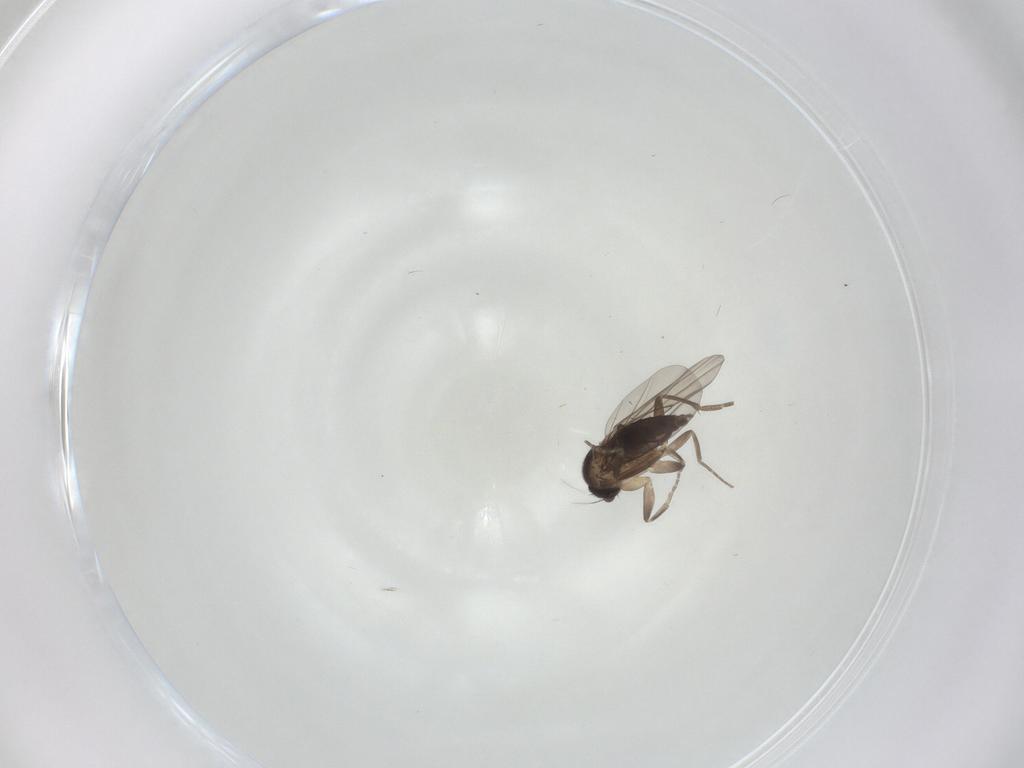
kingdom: Animalia
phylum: Arthropoda
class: Insecta
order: Diptera
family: Phoridae
